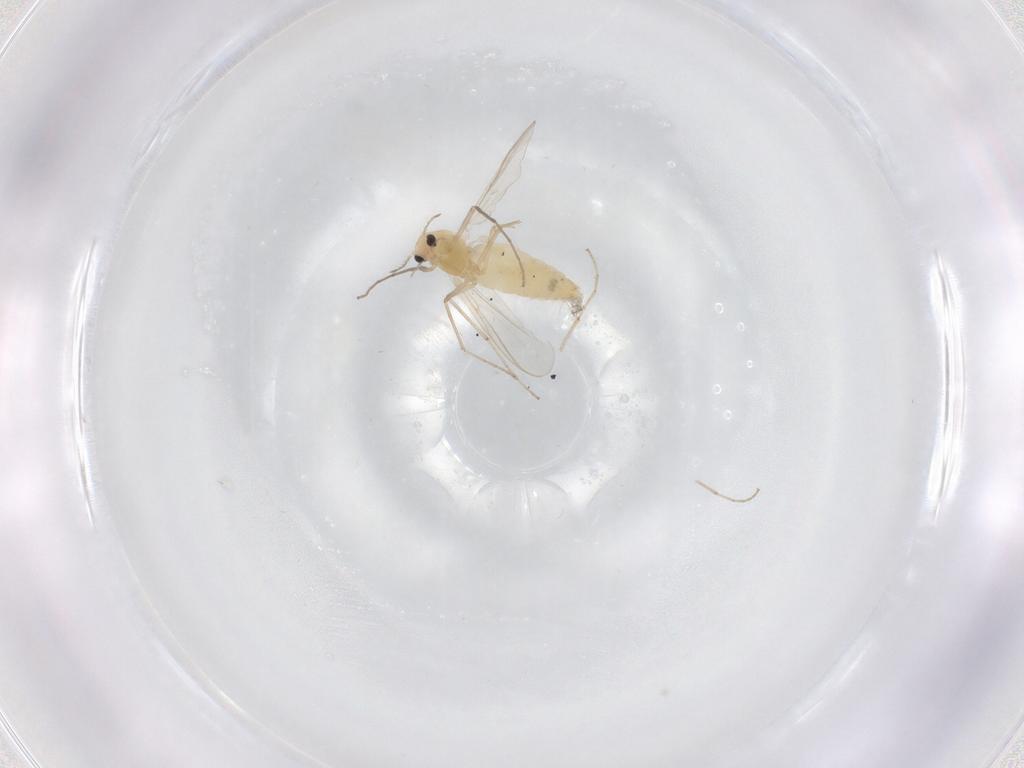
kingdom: Animalia
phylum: Arthropoda
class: Insecta
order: Diptera
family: Chironomidae
